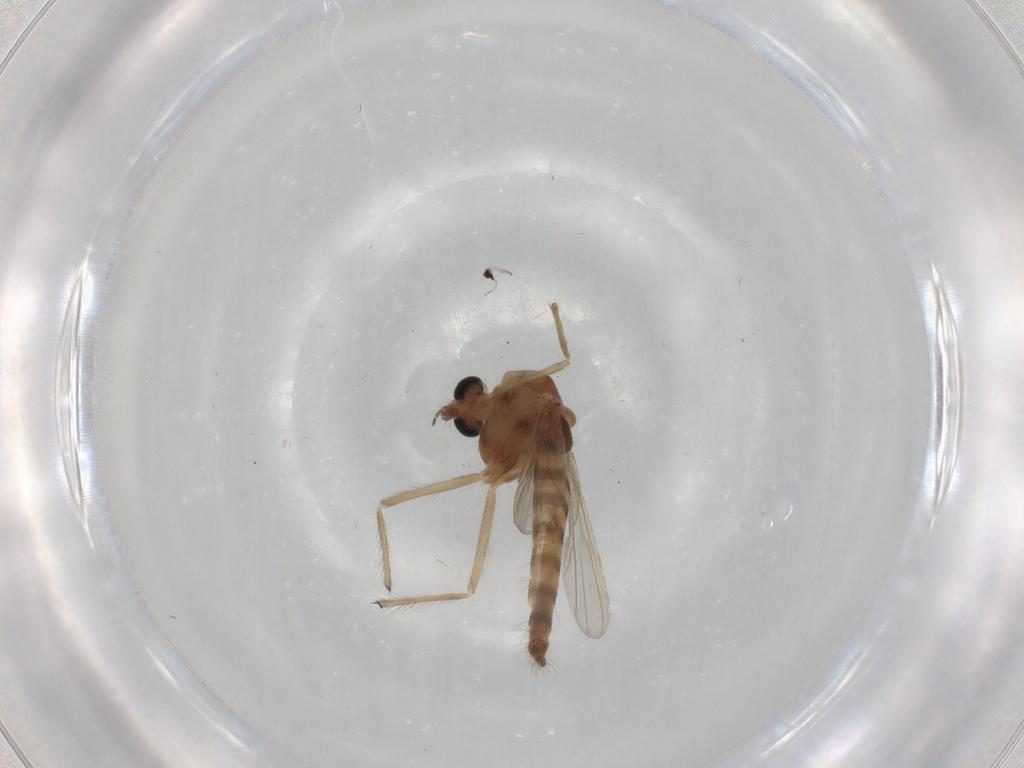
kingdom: Animalia
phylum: Arthropoda
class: Insecta
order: Diptera
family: Chironomidae
